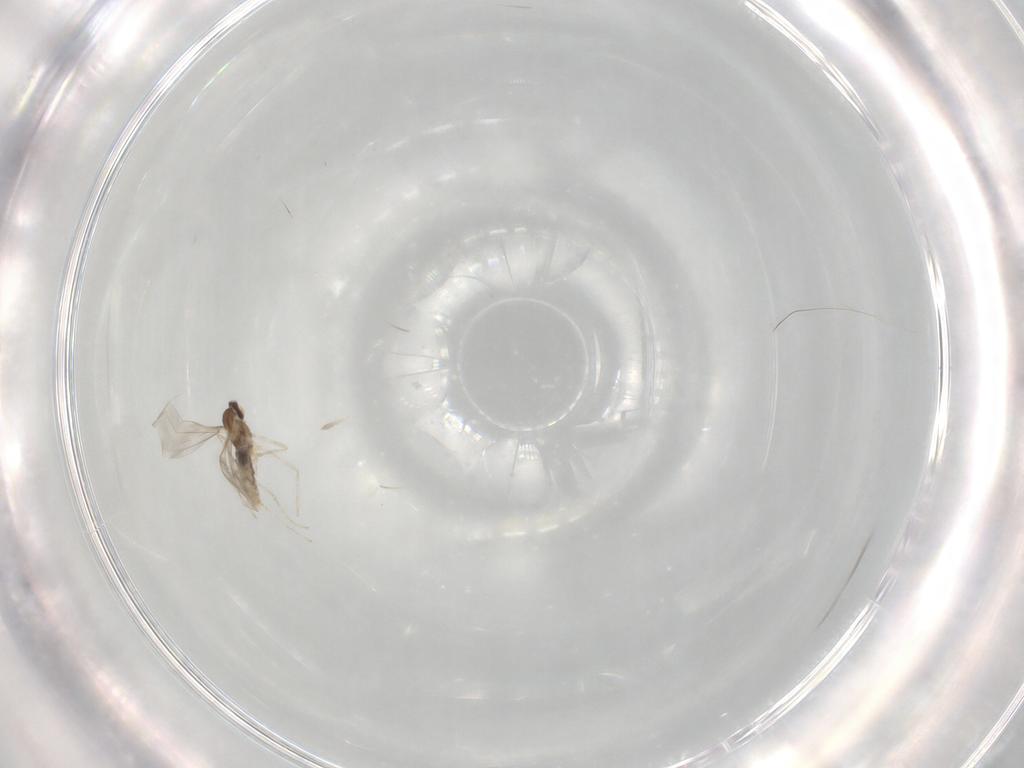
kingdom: Animalia
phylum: Arthropoda
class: Insecta
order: Diptera
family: Cecidomyiidae
